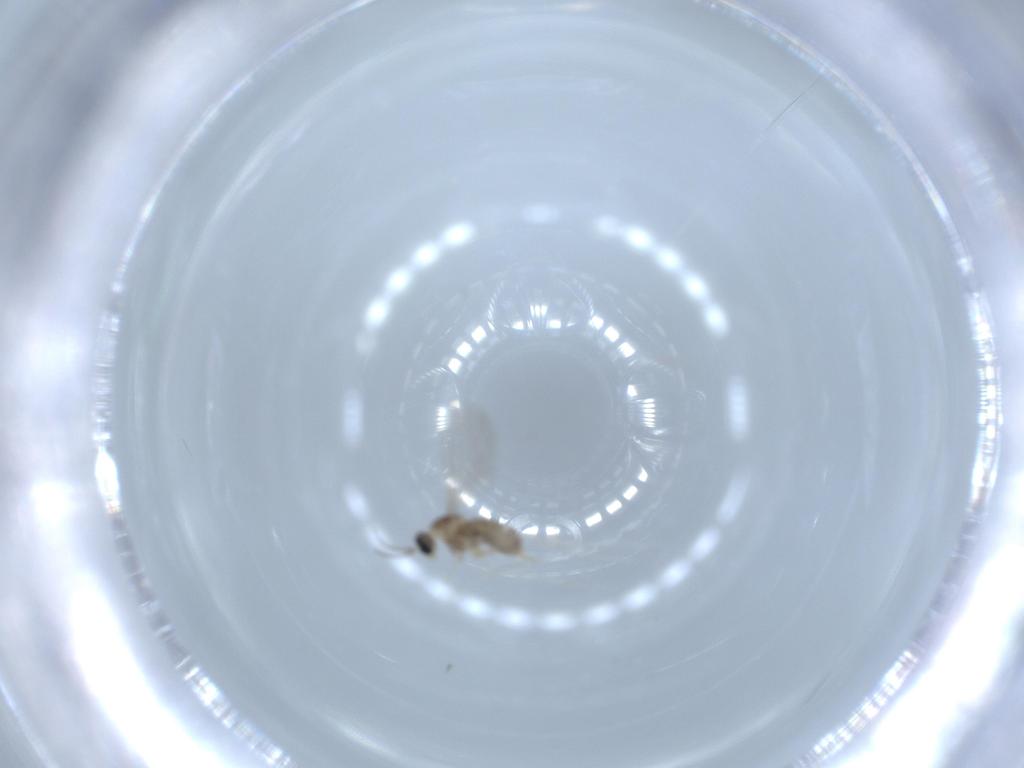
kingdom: Animalia
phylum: Arthropoda
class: Insecta
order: Diptera
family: Cecidomyiidae
